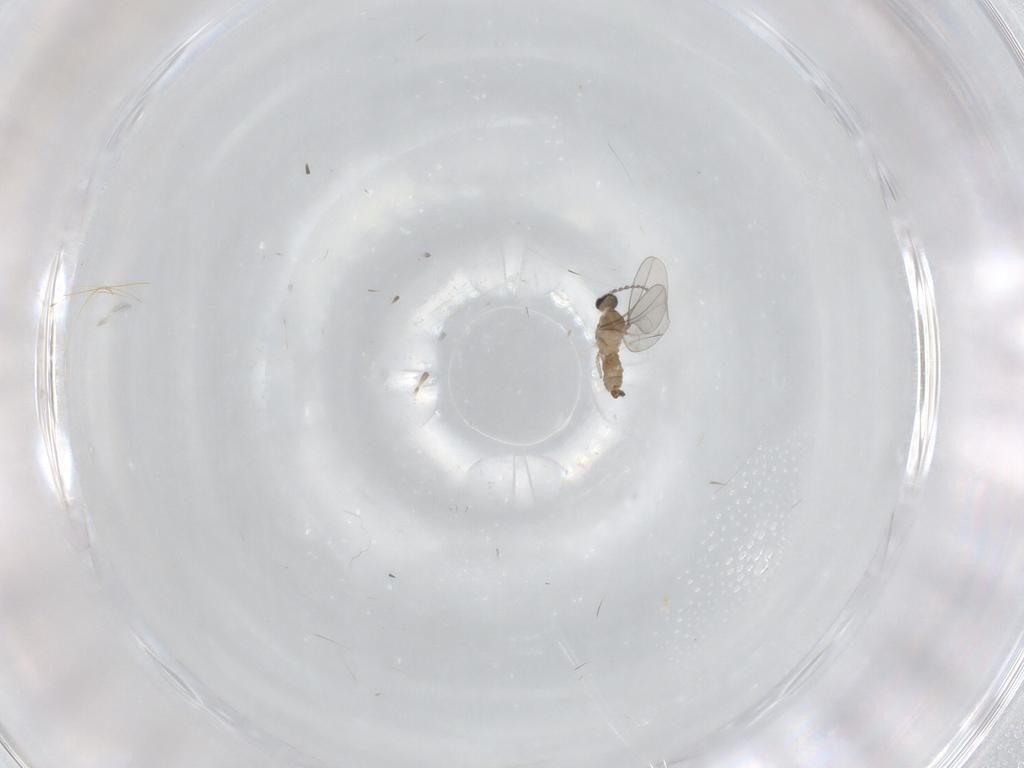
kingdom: Animalia
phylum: Arthropoda
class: Insecta
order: Diptera
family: Cecidomyiidae
